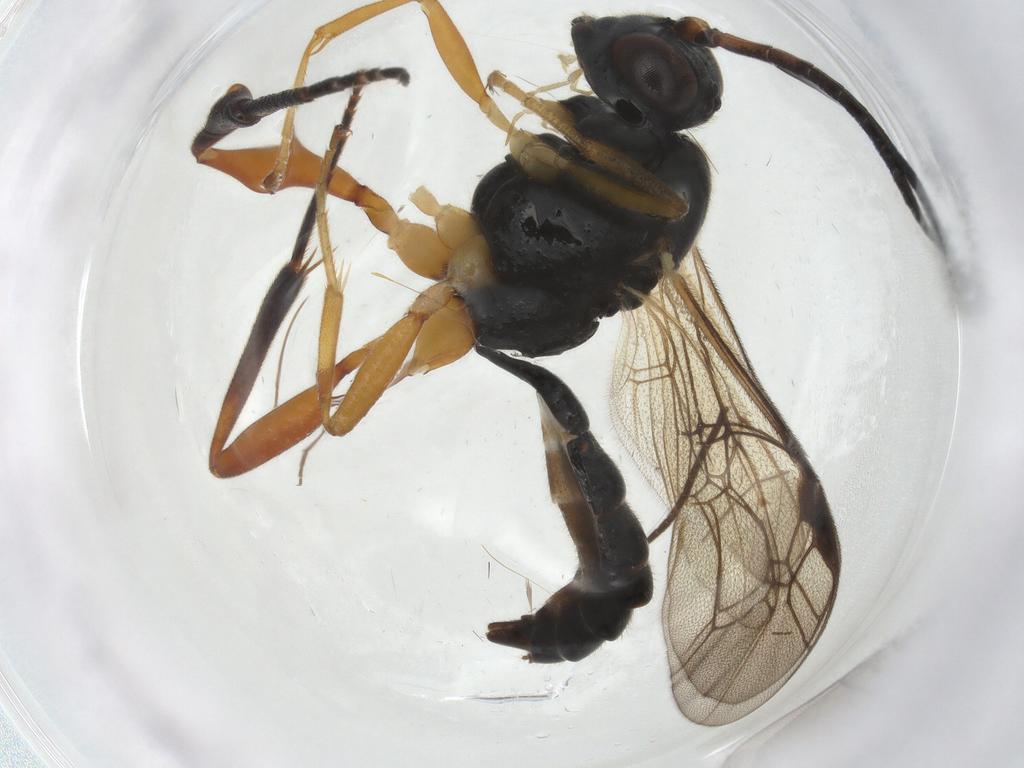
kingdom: Animalia
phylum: Arthropoda
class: Insecta
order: Hymenoptera
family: Ichneumonidae
